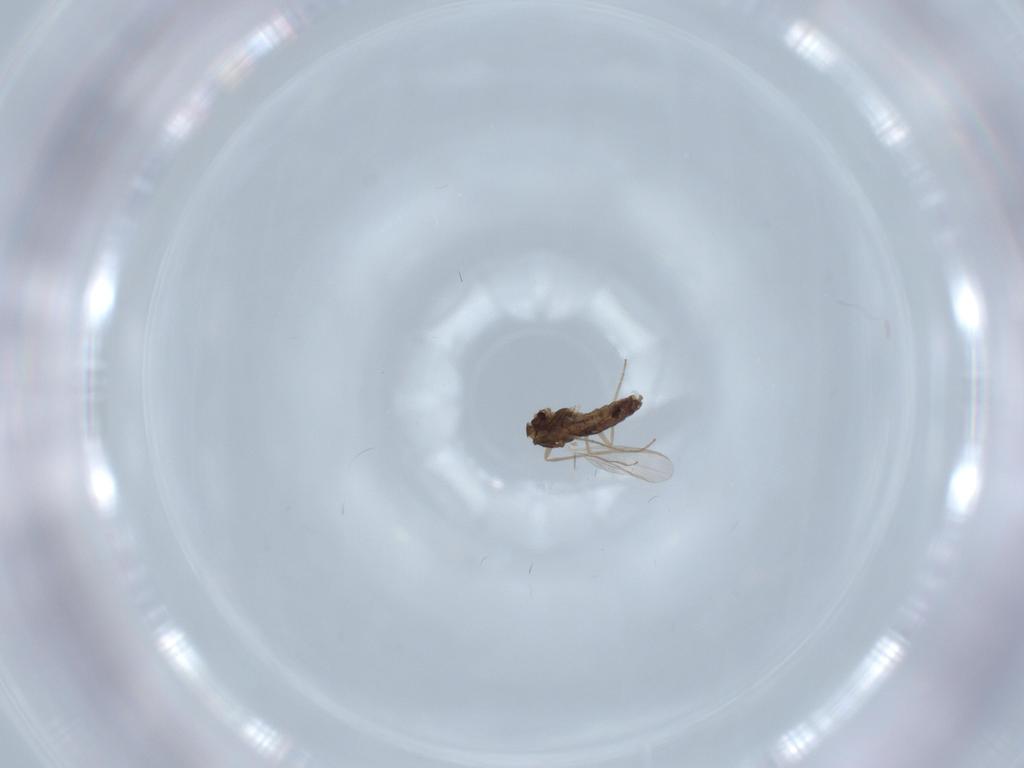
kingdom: Animalia
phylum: Arthropoda
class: Insecta
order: Diptera
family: Chironomidae
